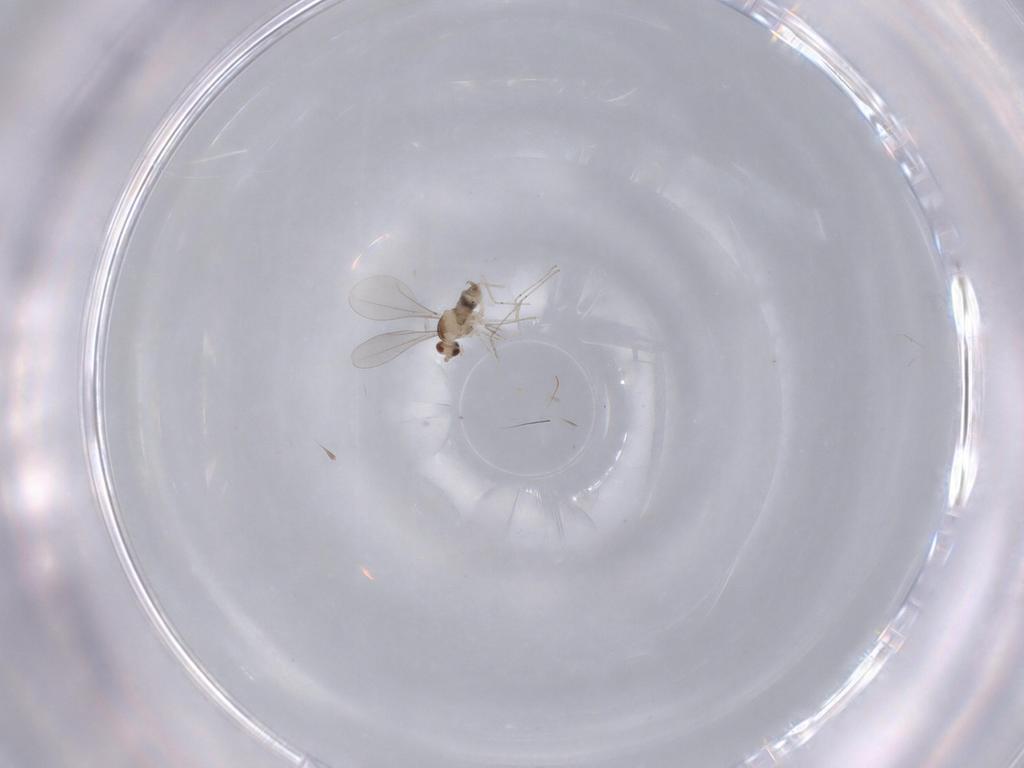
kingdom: Animalia
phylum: Arthropoda
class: Insecta
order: Diptera
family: Cecidomyiidae
